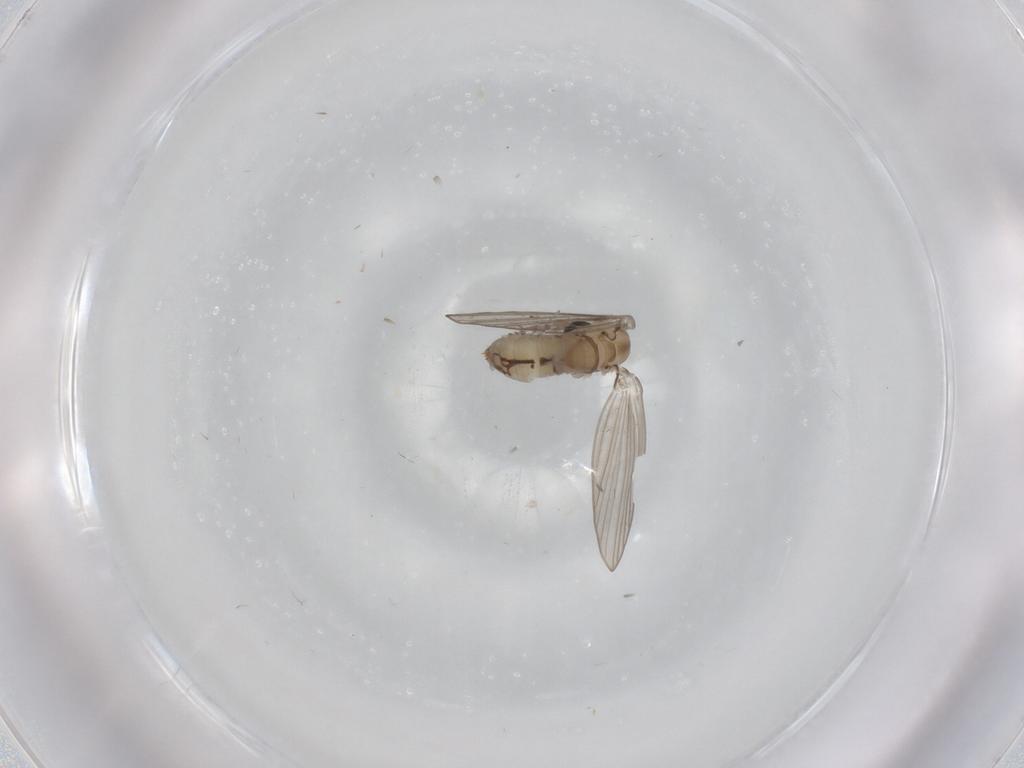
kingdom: Animalia
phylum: Arthropoda
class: Insecta
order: Diptera
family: Psychodidae
